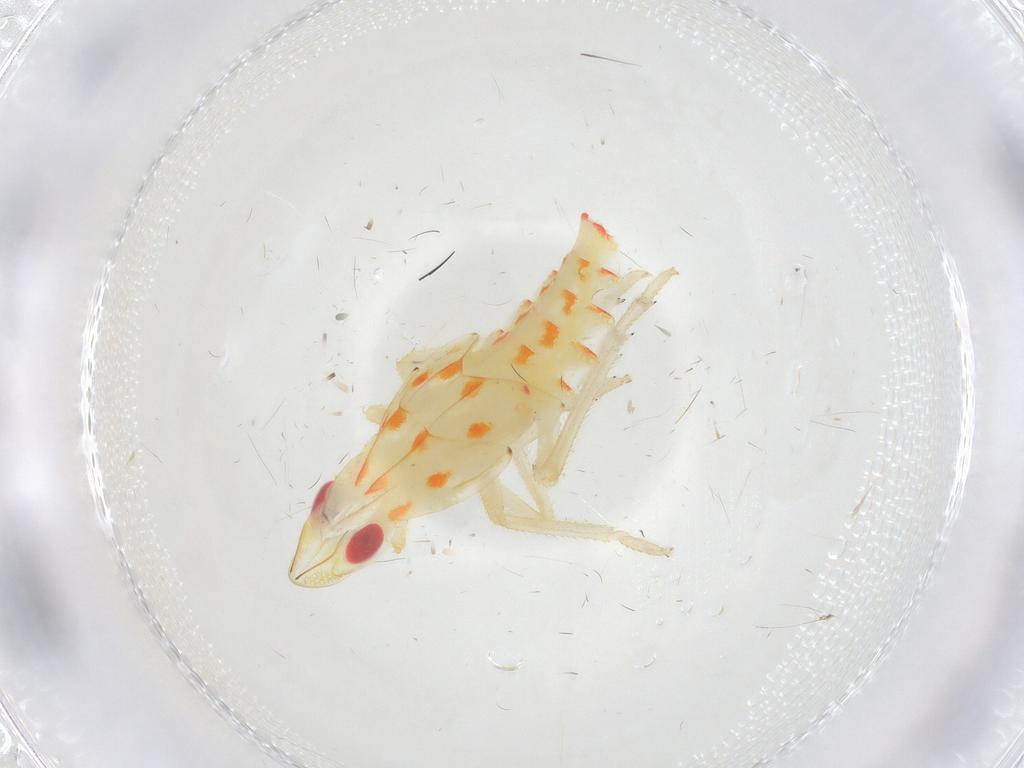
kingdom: Animalia
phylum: Arthropoda
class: Insecta
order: Hemiptera
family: Tropiduchidae
